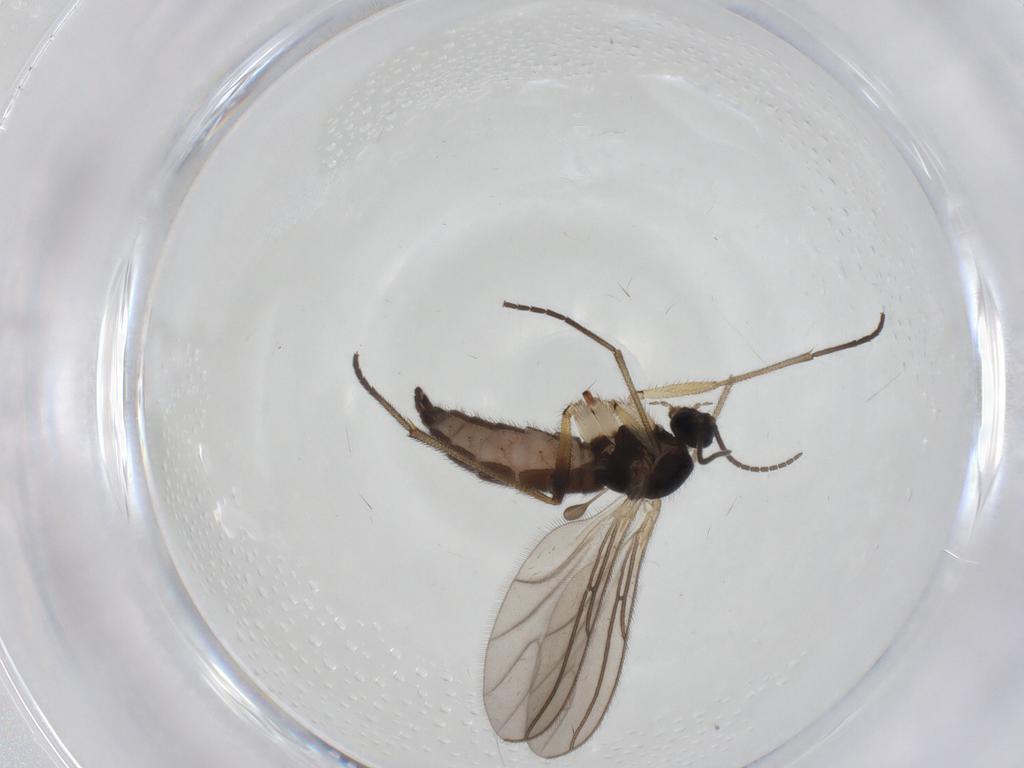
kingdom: Animalia
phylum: Arthropoda
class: Insecta
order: Diptera
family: Sciaridae
